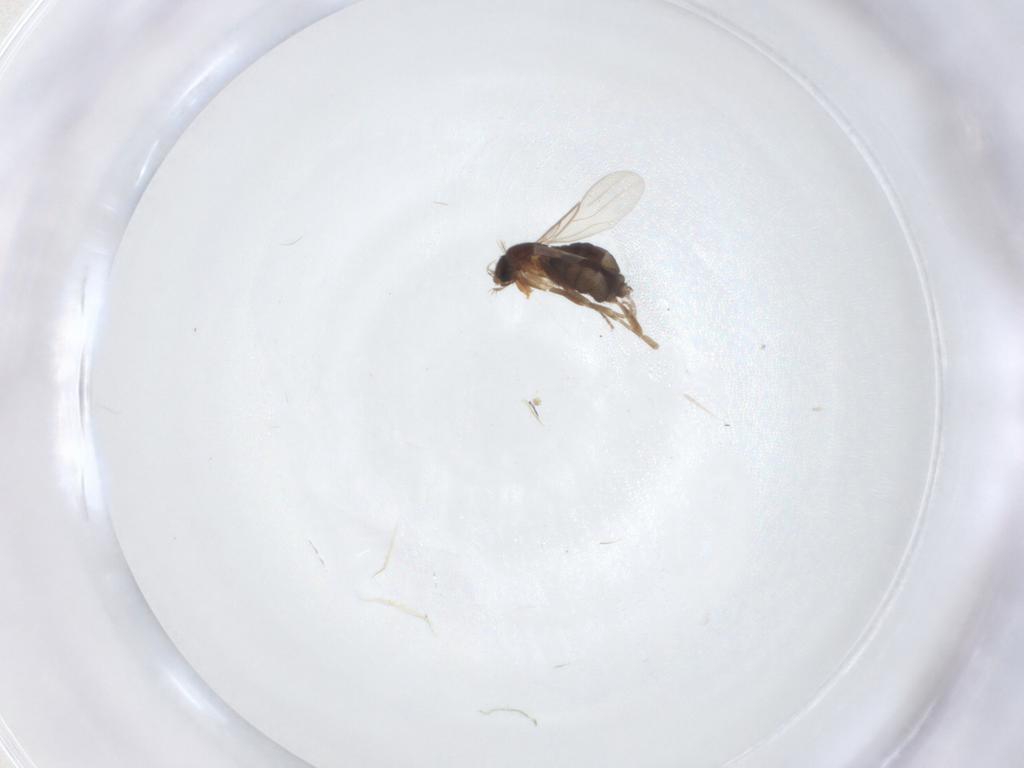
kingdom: Animalia
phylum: Arthropoda
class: Insecta
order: Diptera
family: Phoridae
